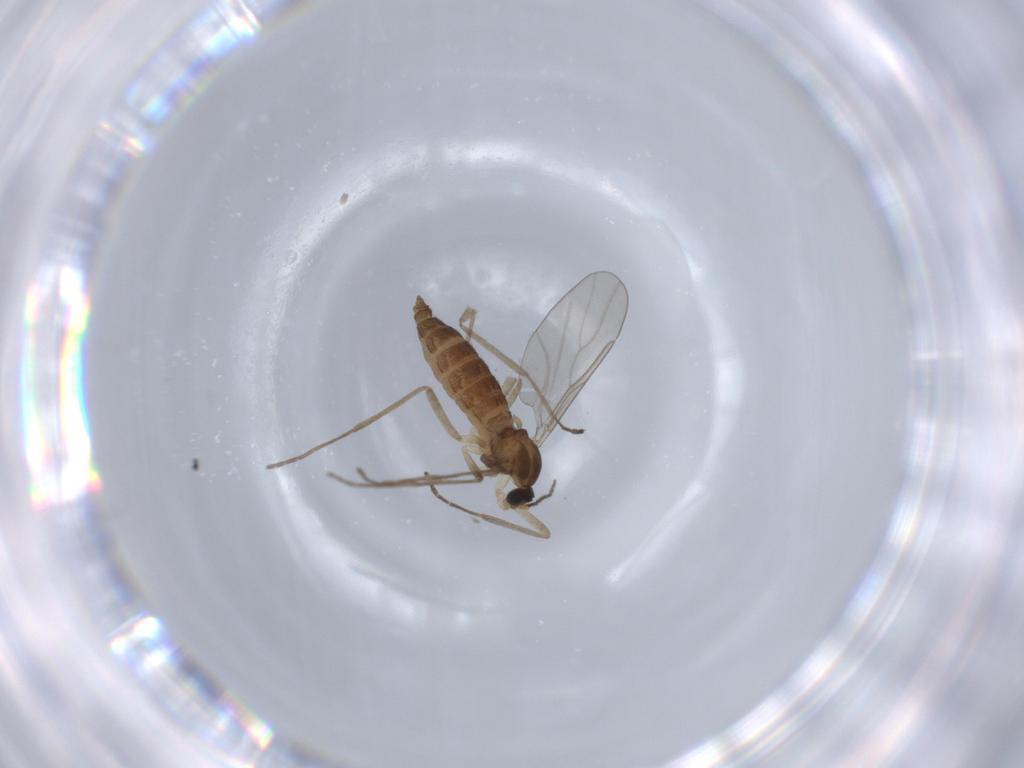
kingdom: Animalia
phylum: Arthropoda
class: Insecta
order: Diptera
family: Cecidomyiidae
